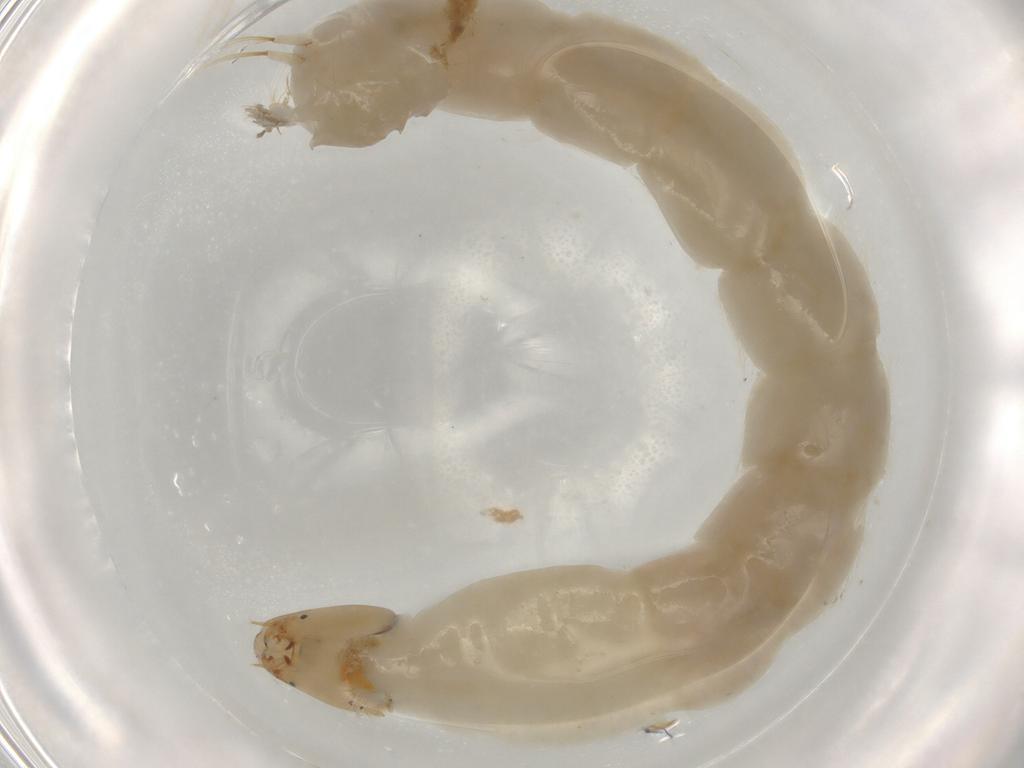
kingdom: Animalia
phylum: Arthropoda
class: Insecta
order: Diptera
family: Chironomidae
